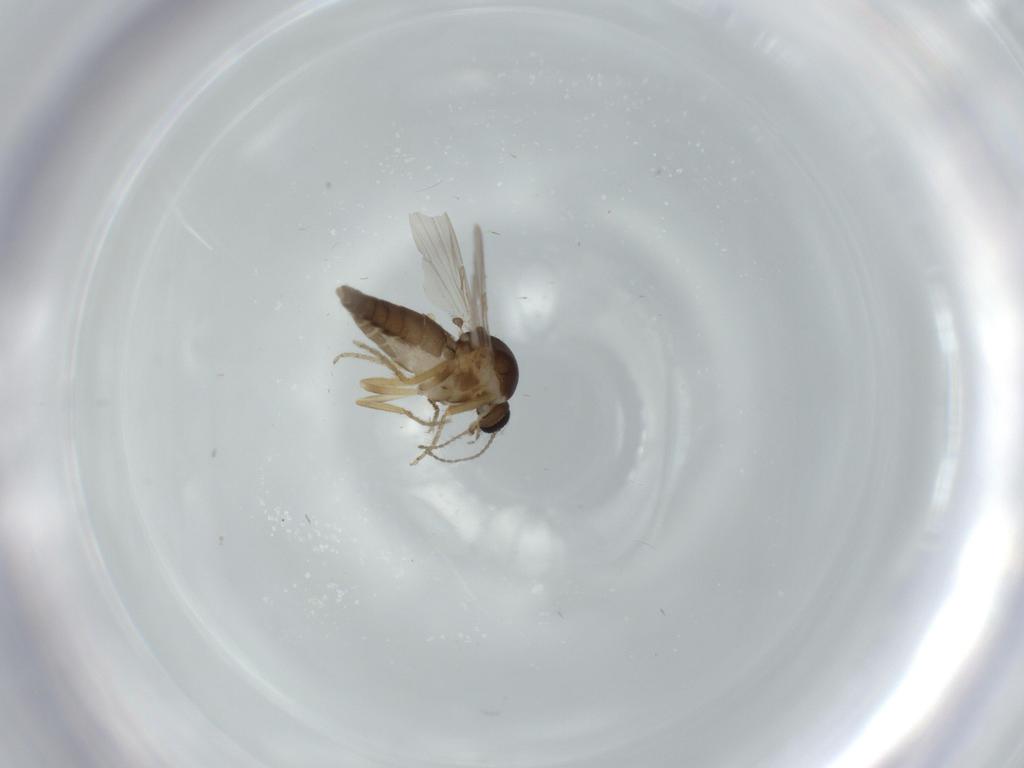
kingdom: Animalia
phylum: Arthropoda
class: Insecta
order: Diptera
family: Ceratopogonidae
